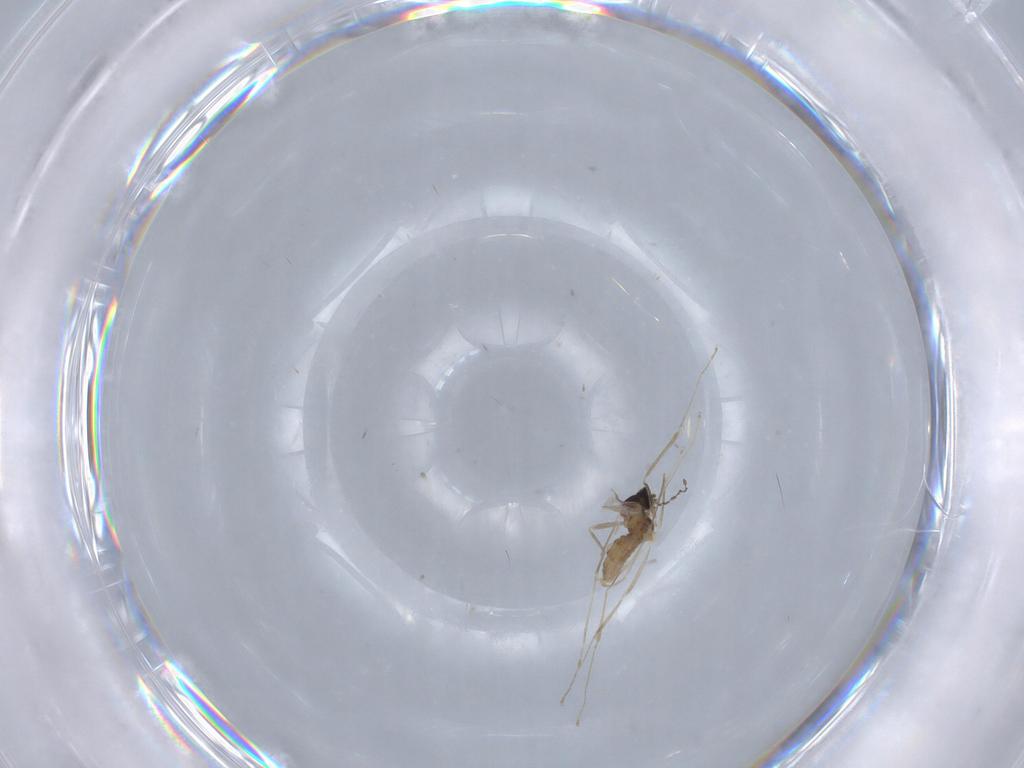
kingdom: Animalia
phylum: Arthropoda
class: Insecta
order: Diptera
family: Cecidomyiidae
